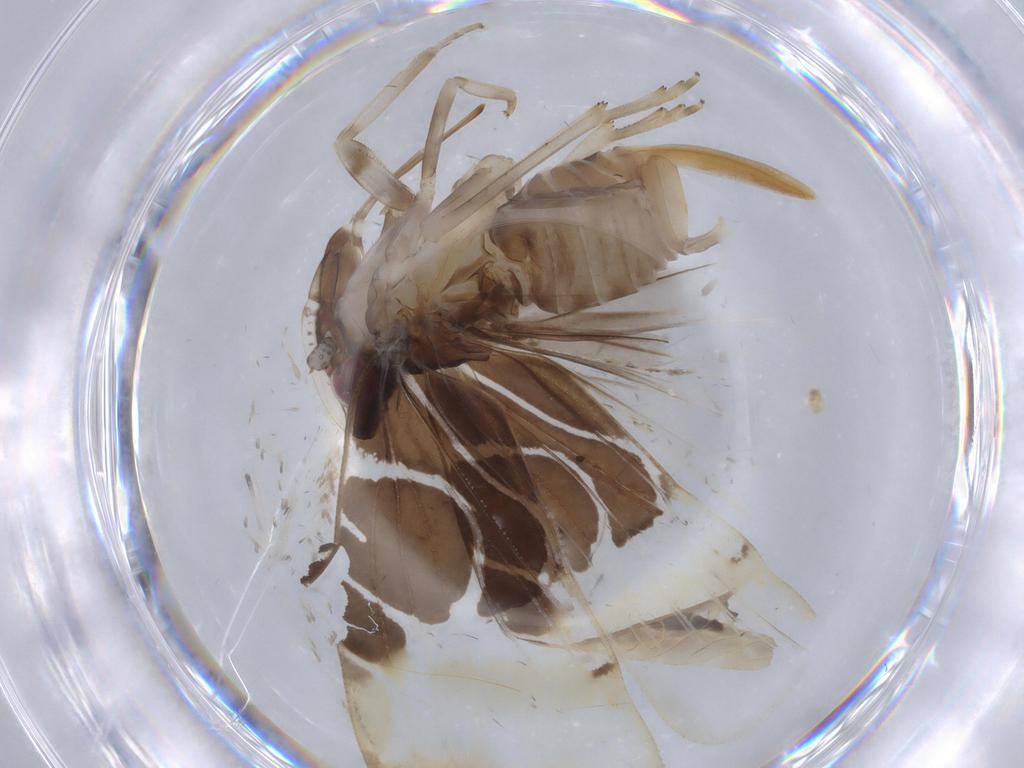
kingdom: Animalia
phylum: Arthropoda
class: Insecta
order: Hemiptera
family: Cixiidae
